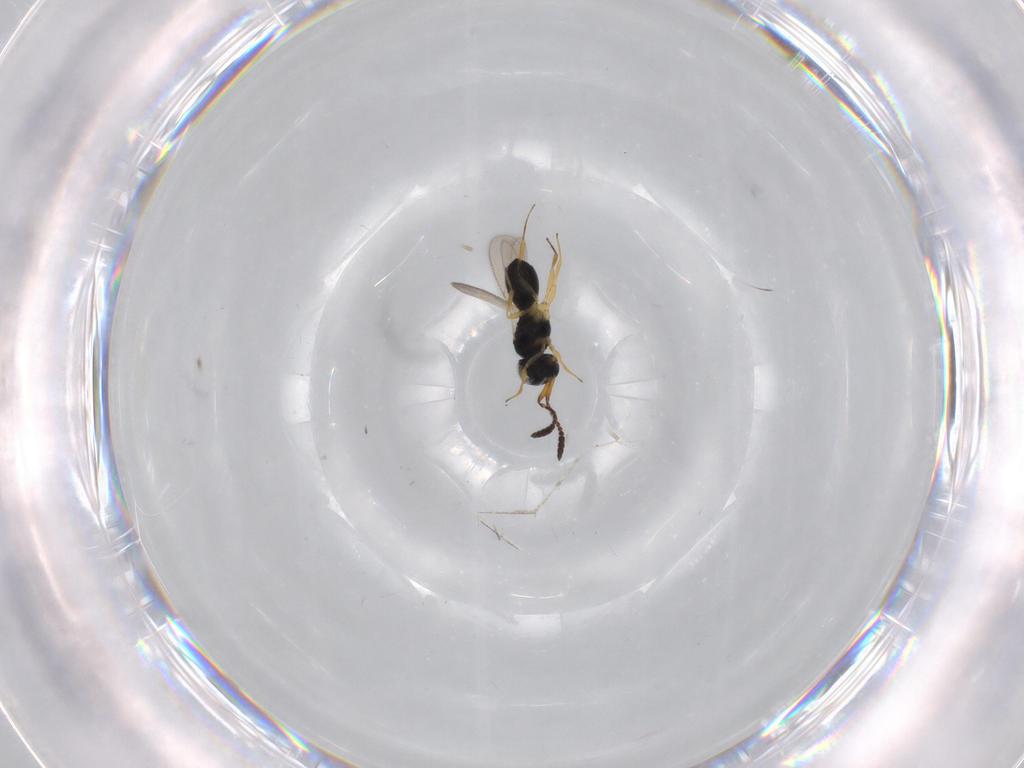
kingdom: Animalia
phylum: Arthropoda
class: Insecta
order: Hymenoptera
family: Scelionidae
